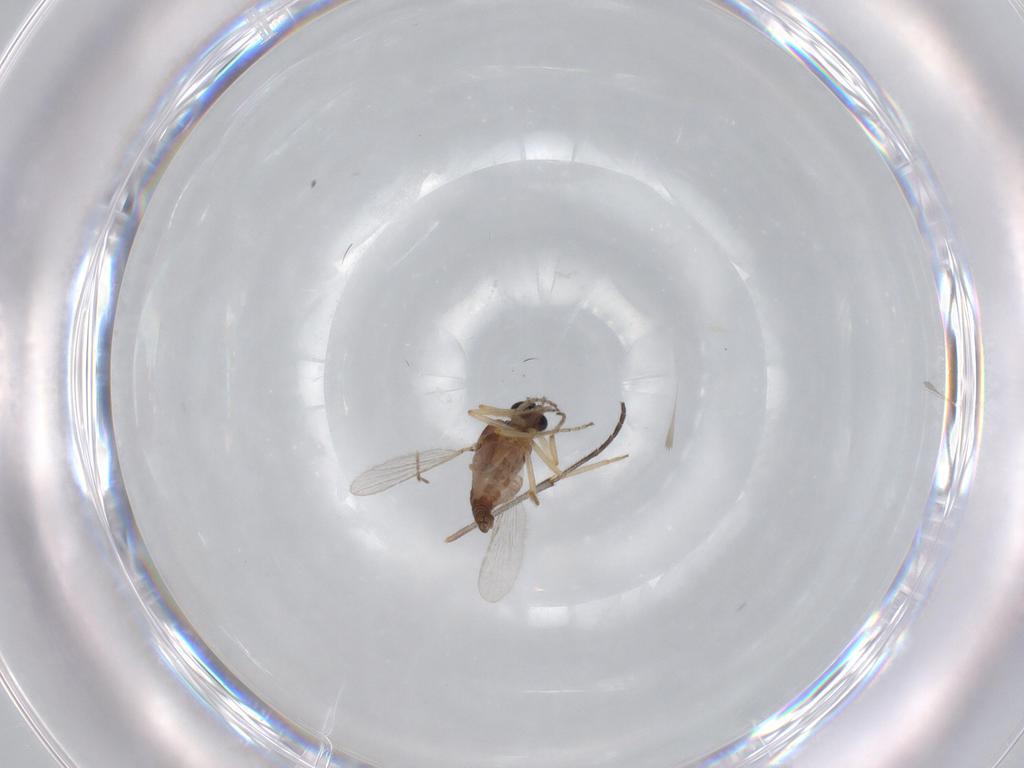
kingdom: Animalia
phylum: Arthropoda
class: Insecta
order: Diptera
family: Ceratopogonidae
